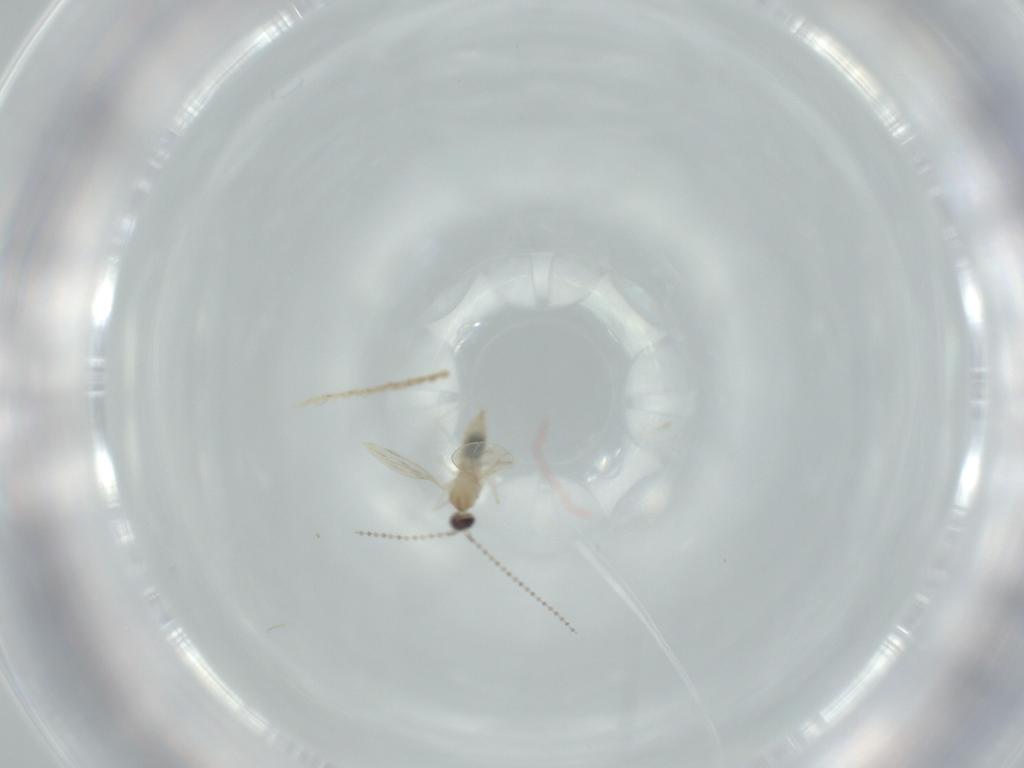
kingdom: Animalia
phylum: Arthropoda
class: Insecta
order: Diptera
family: Cecidomyiidae
